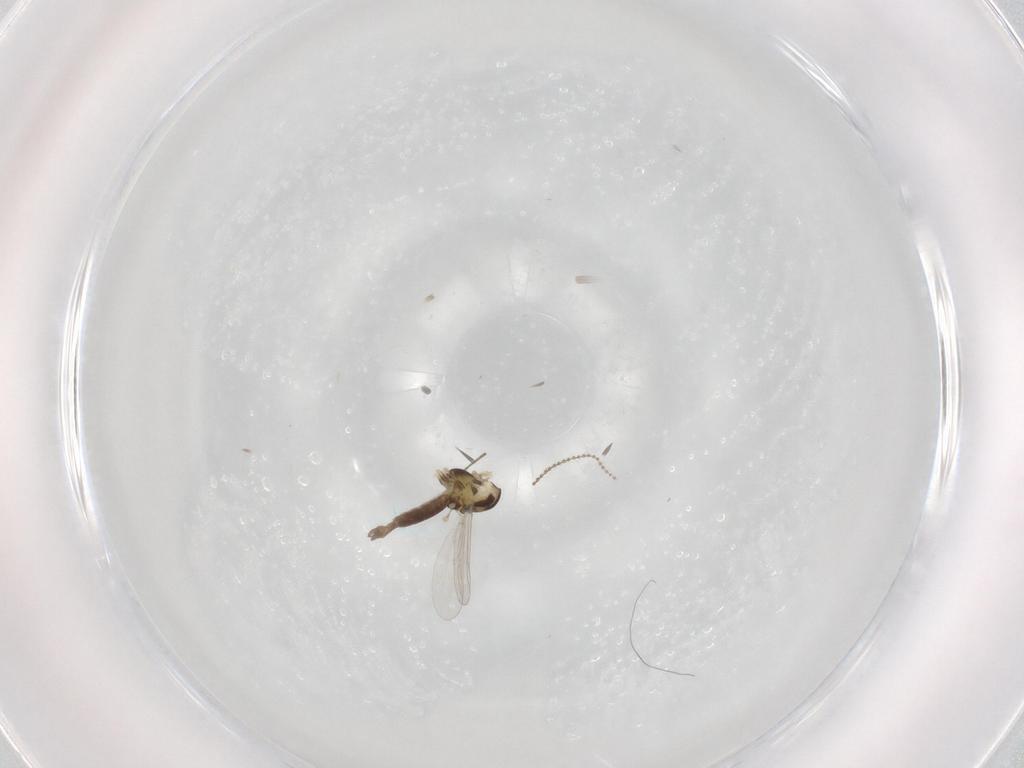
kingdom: Animalia
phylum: Arthropoda
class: Insecta
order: Diptera
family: Chironomidae
